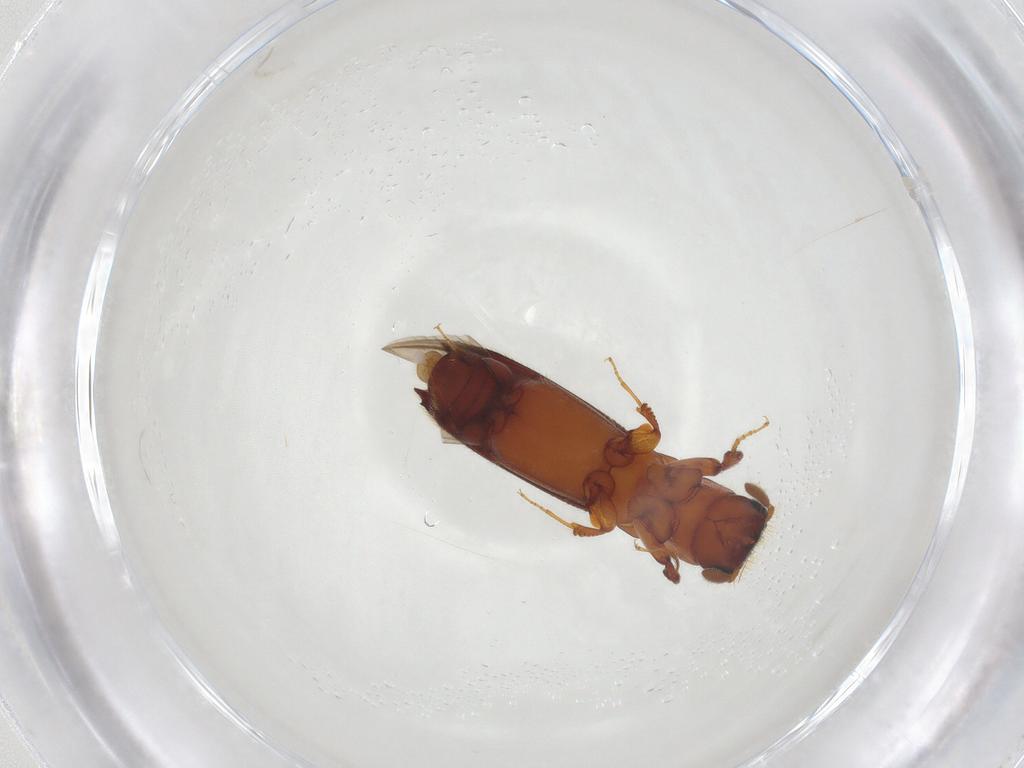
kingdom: Animalia
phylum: Arthropoda
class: Insecta
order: Coleoptera
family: Curculionidae
